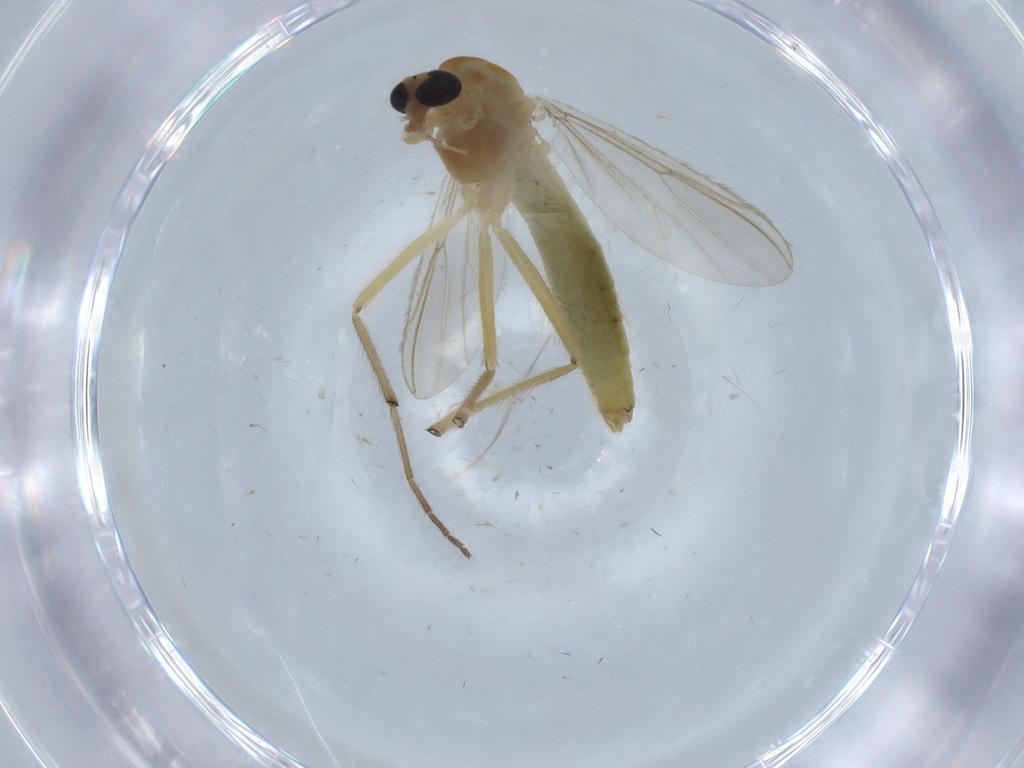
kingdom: Animalia
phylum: Arthropoda
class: Insecta
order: Diptera
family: Chironomidae
